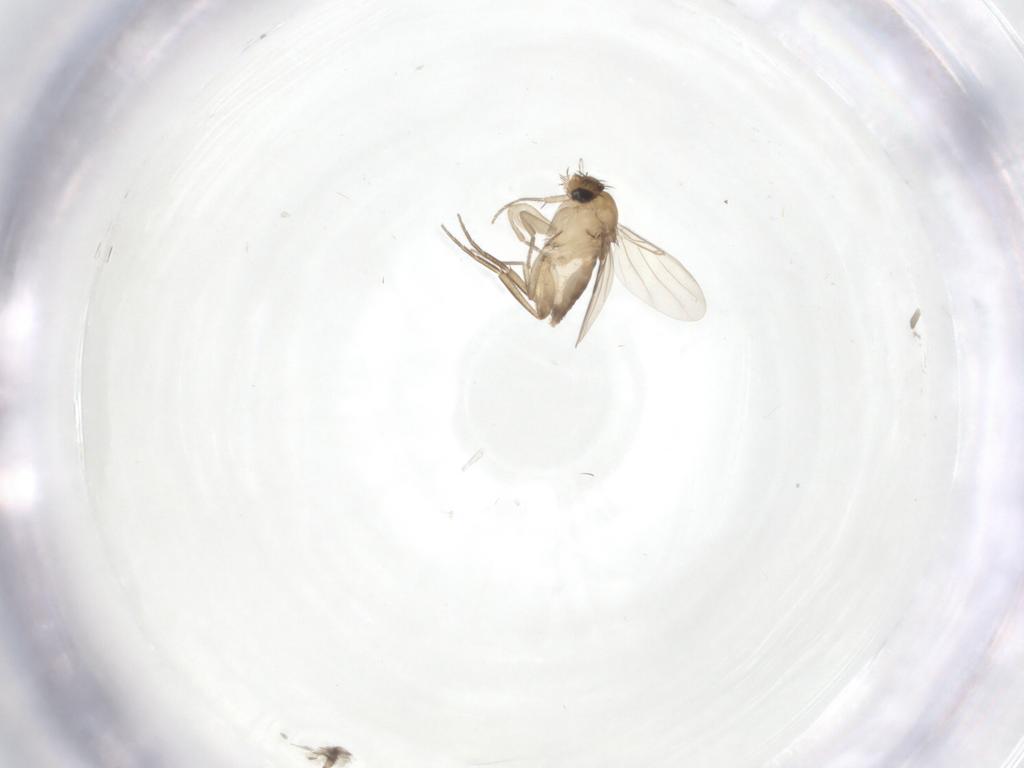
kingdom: Animalia
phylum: Arthropoda
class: Insecta
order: Diptera
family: Phoridae
